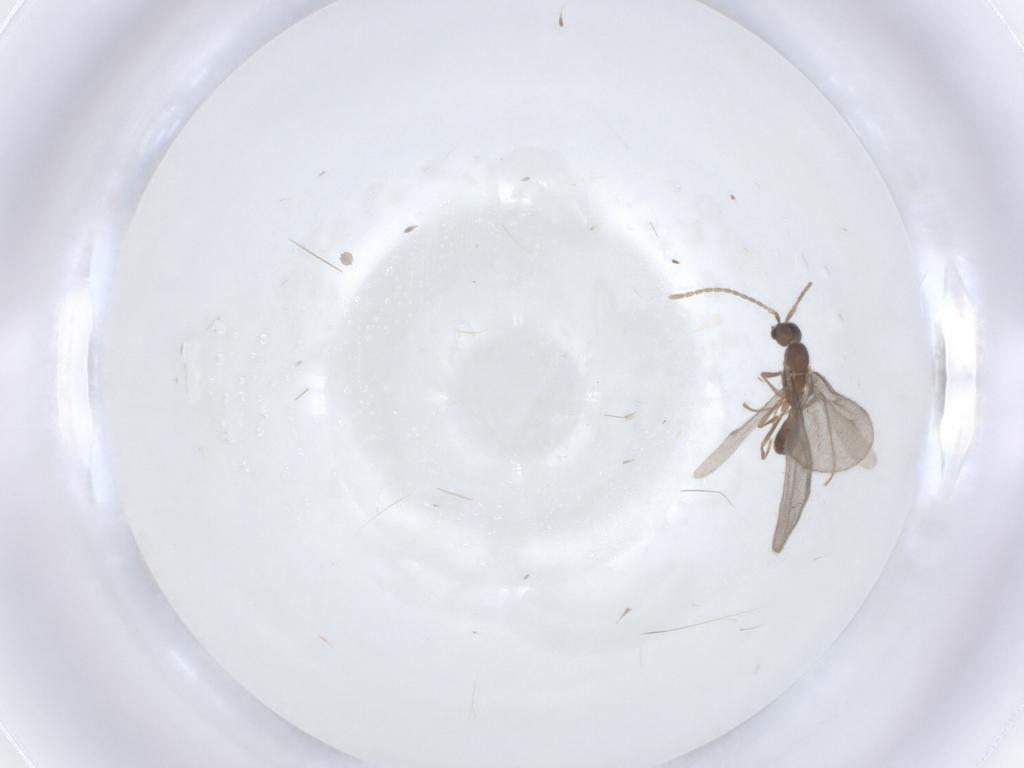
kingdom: Animalia
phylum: Arthropoda
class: Insecta
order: Hymenoptera
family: Formicidae
